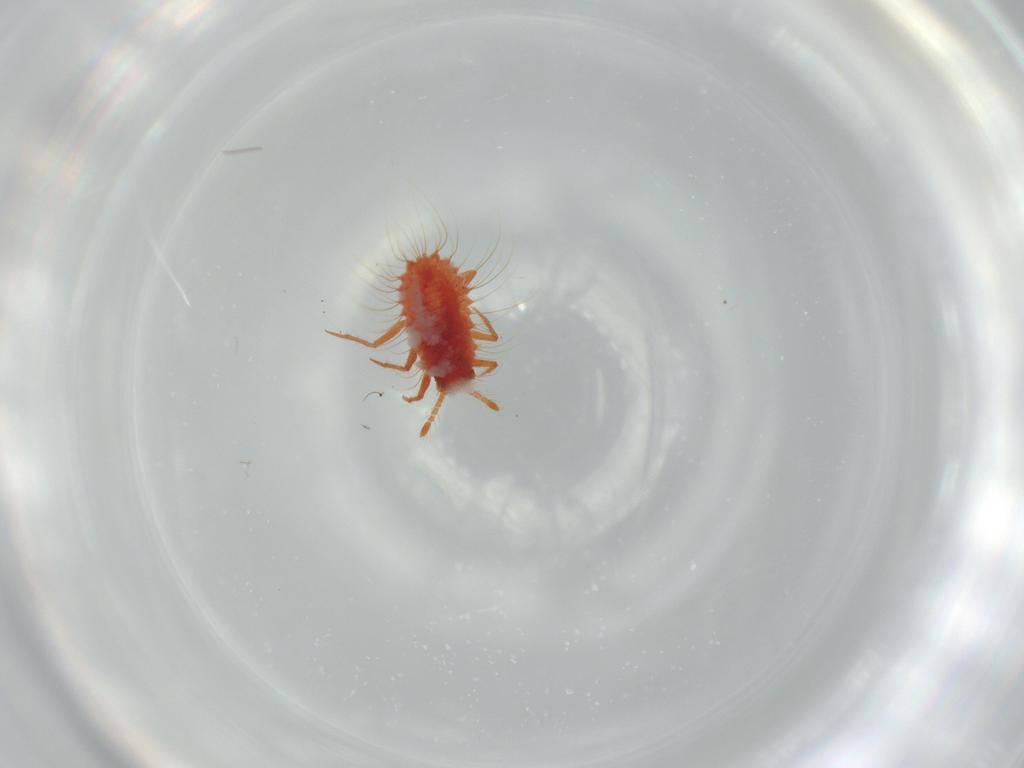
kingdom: Animalia
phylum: Arthropoda
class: Insecta
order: Hemiptera
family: Monophlebidae
